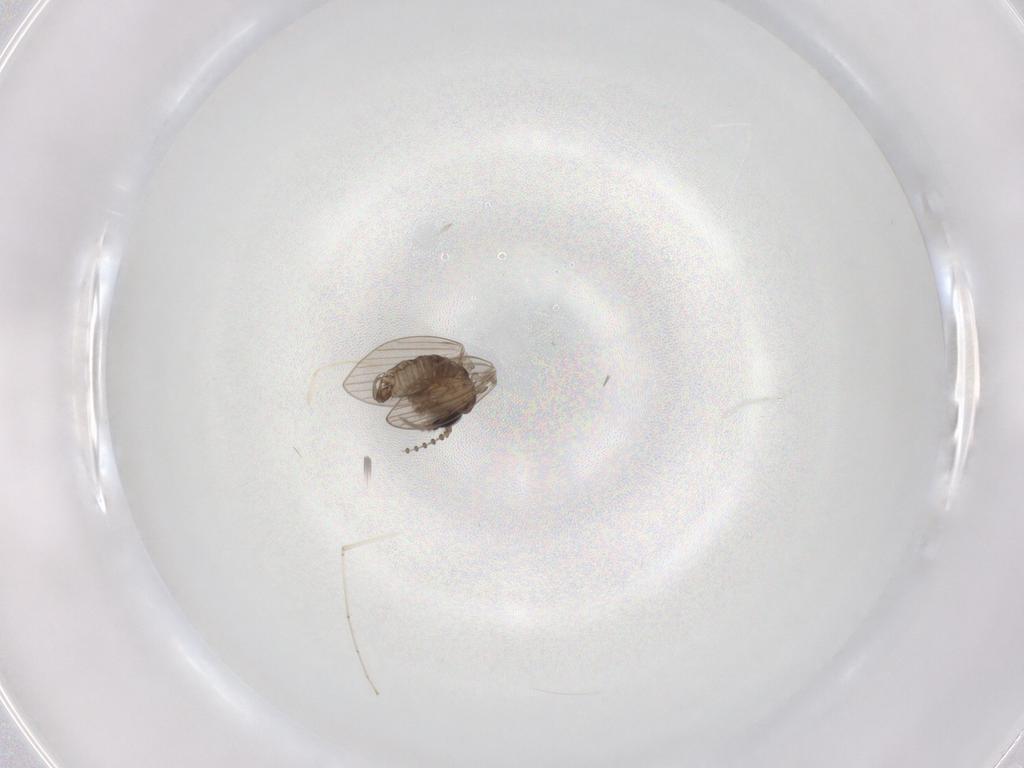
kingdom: Animalia
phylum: Arthropoda
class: Insecta
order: Diptera
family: Psychodidae
